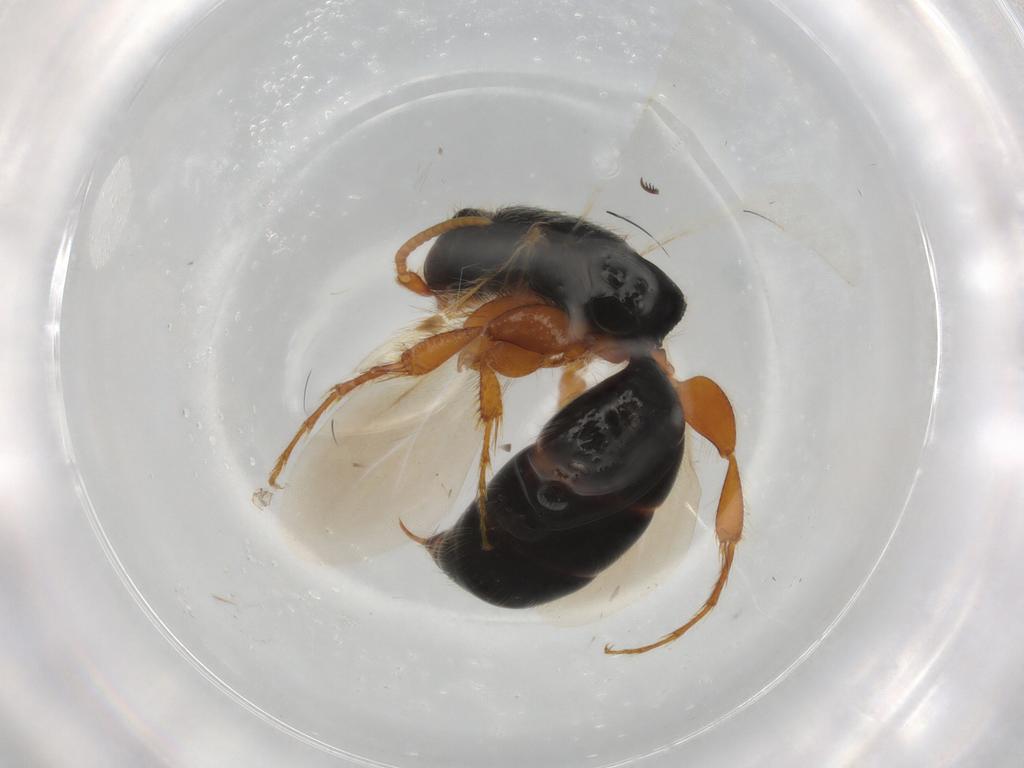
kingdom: Animalia
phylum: Arthropoda
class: Insecta
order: Hymenoptera
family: Bethylidae
